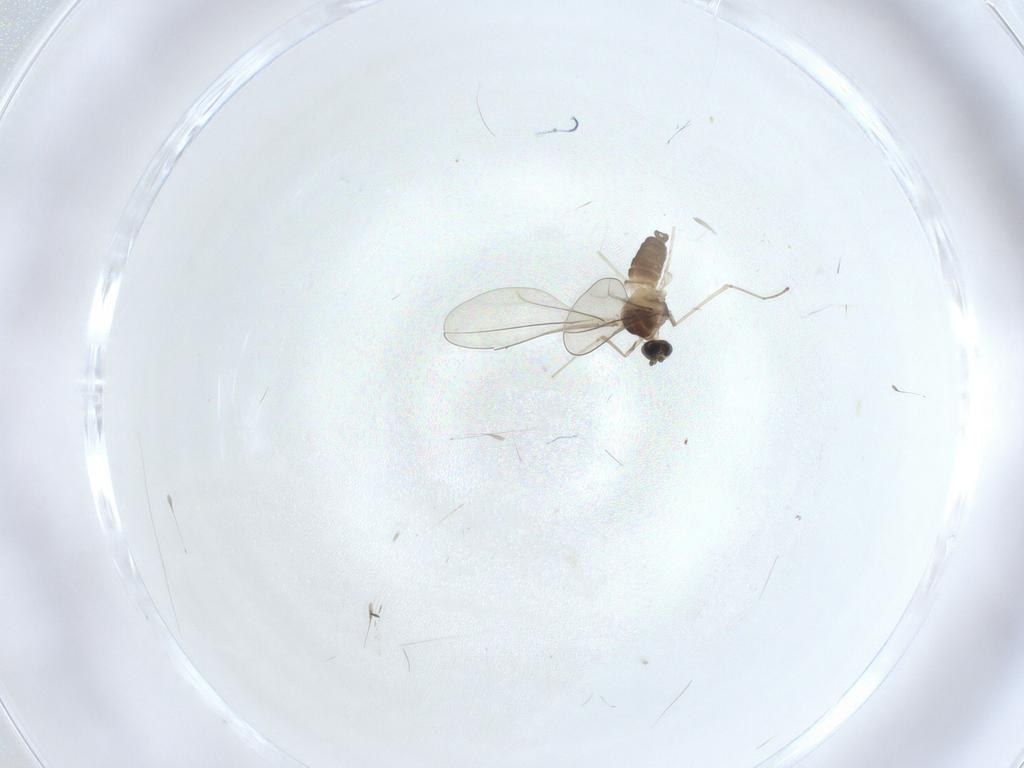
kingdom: Animalia
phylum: Arthropoda
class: Insecta
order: Diptera
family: Cecidomyiidae
